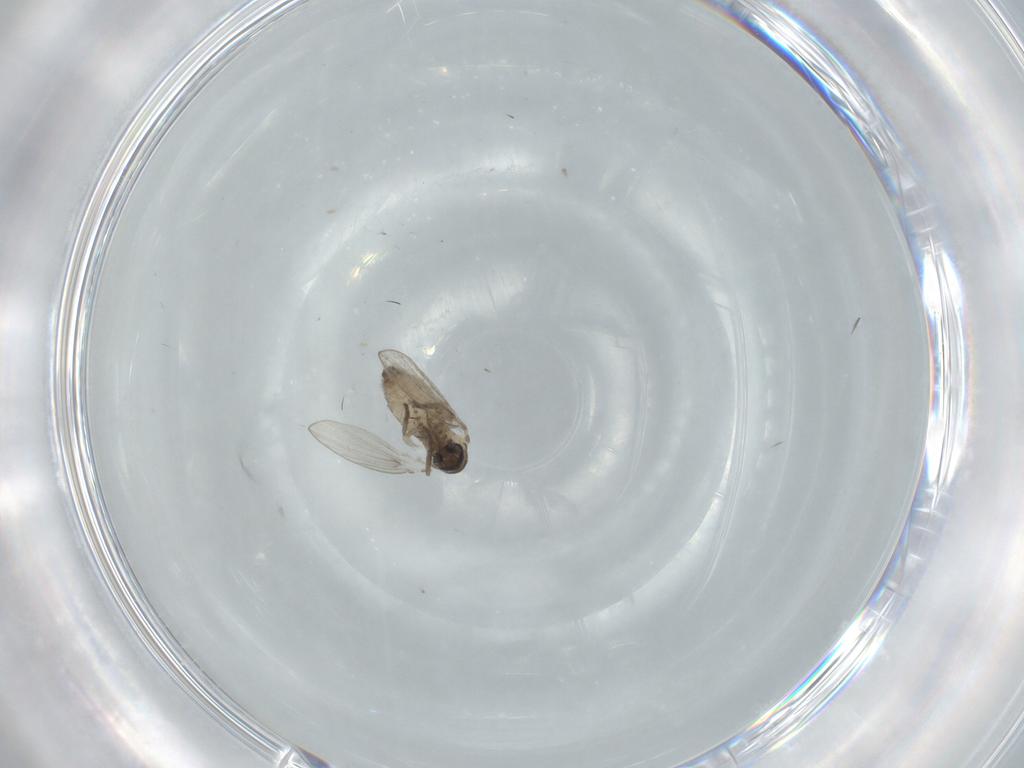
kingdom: Animalia
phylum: Arthropoda
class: Insecta
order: Diptera
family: Psychodidae
